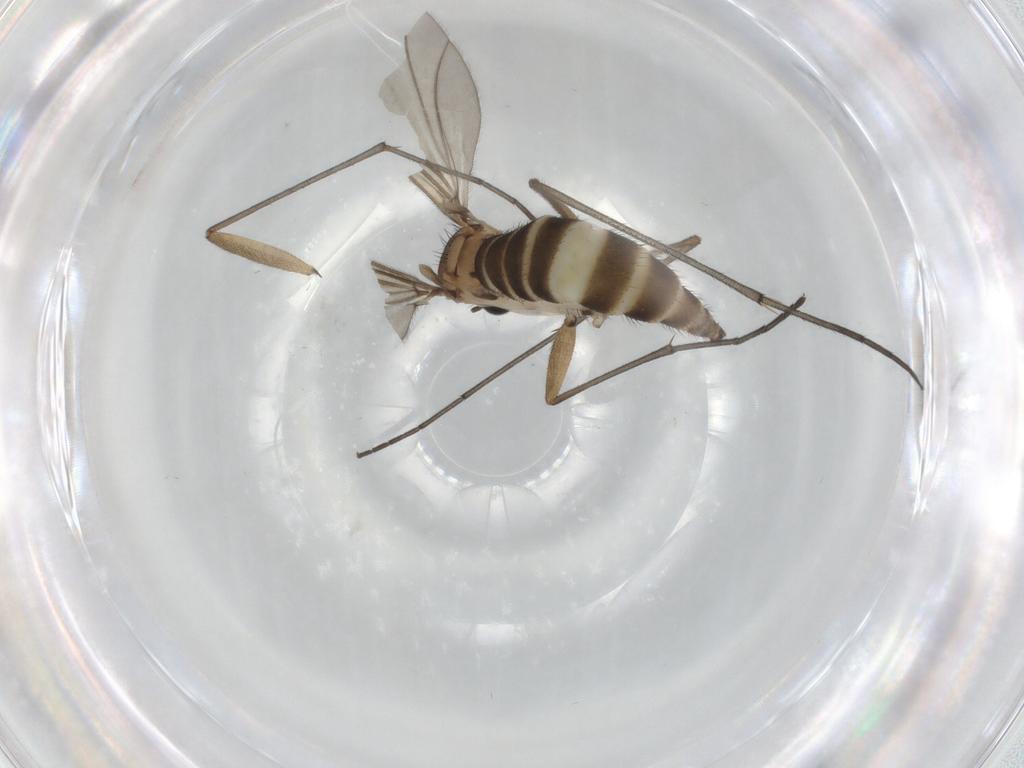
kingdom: Animalia
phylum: Arthropoda
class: Insecta
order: Diptera
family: Sciaridae
